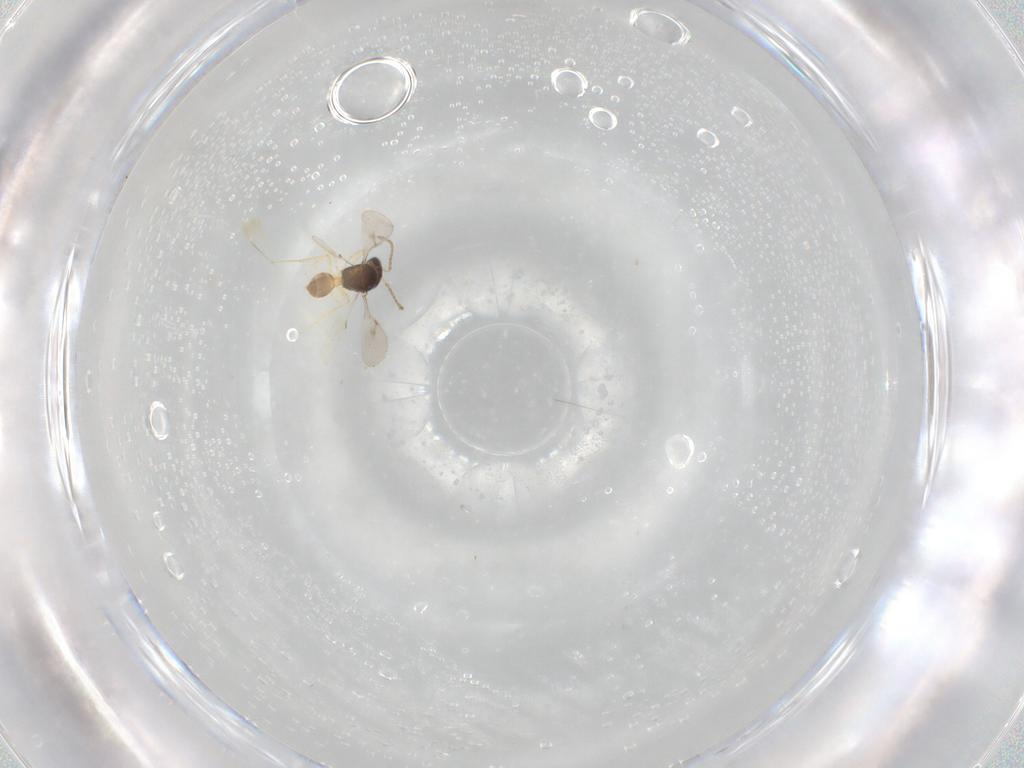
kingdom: Animalia
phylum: Arthropoda
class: Insecta
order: Hymenoptera
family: Scelionidae
